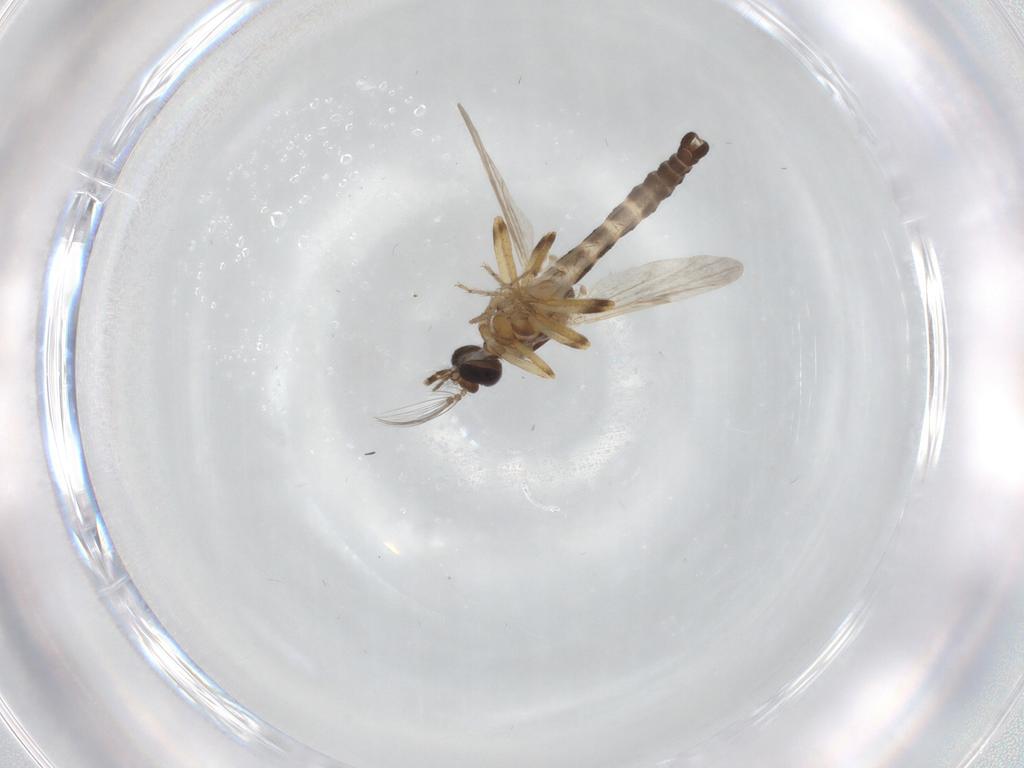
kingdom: Animalia
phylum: Arthropoda
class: Insecta
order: Diptera
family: Ceratopogonidae
